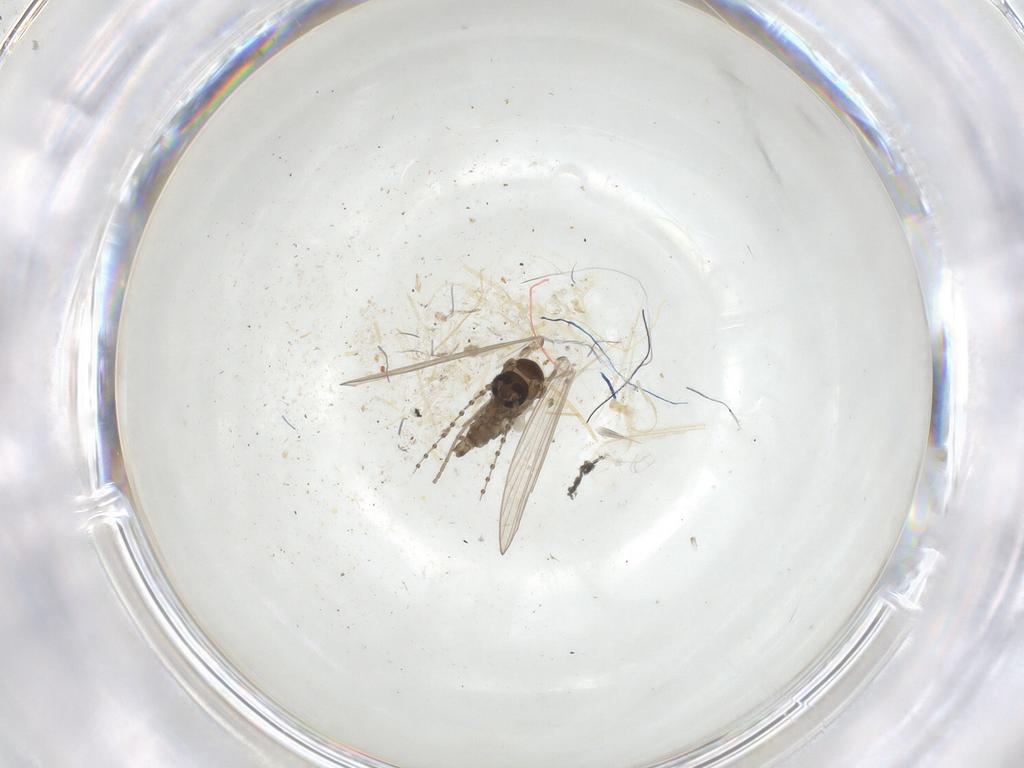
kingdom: Animalia
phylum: Arthropoda
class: Insecta
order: Diptera
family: Psychodidae
